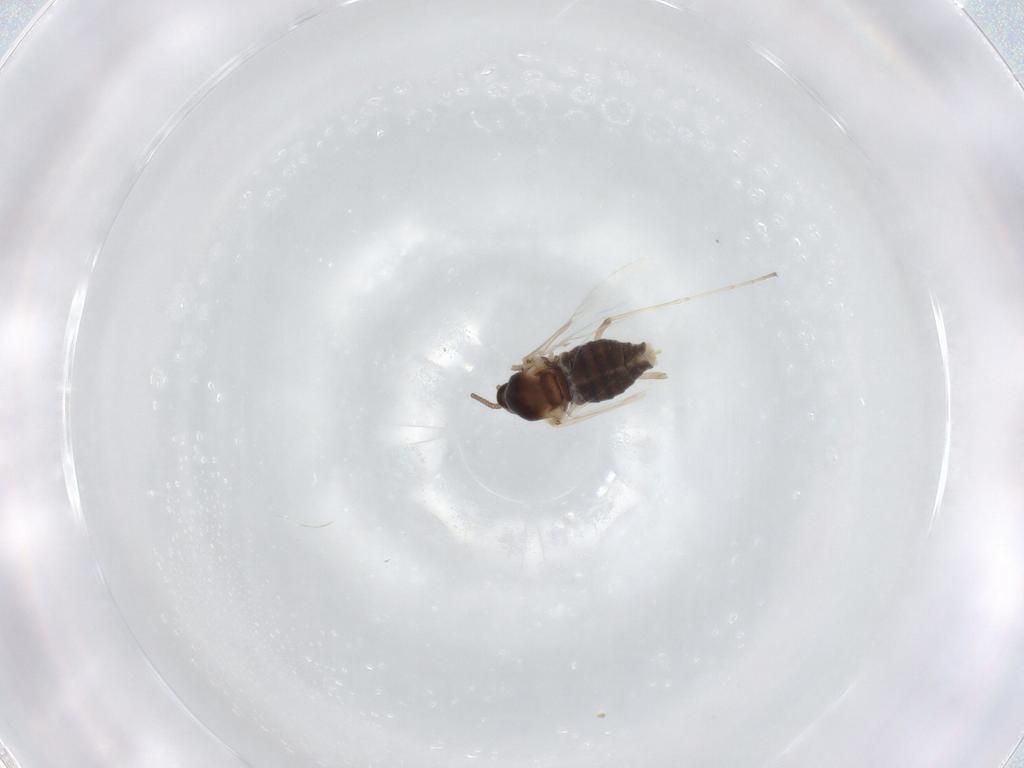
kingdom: Animalia
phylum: Arthropoda
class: Insecta
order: Diptera
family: Cecidomyiidae
